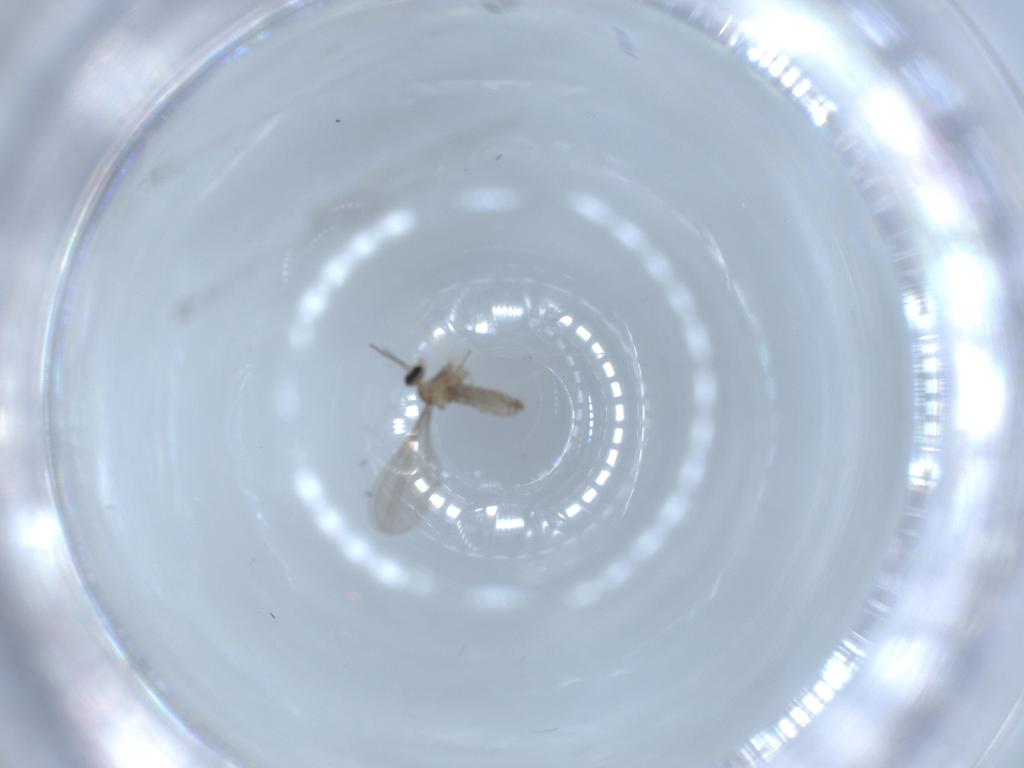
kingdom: Animalia
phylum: Arthropoda
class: Insecta
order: Diptera
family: Cecidomyiidae
